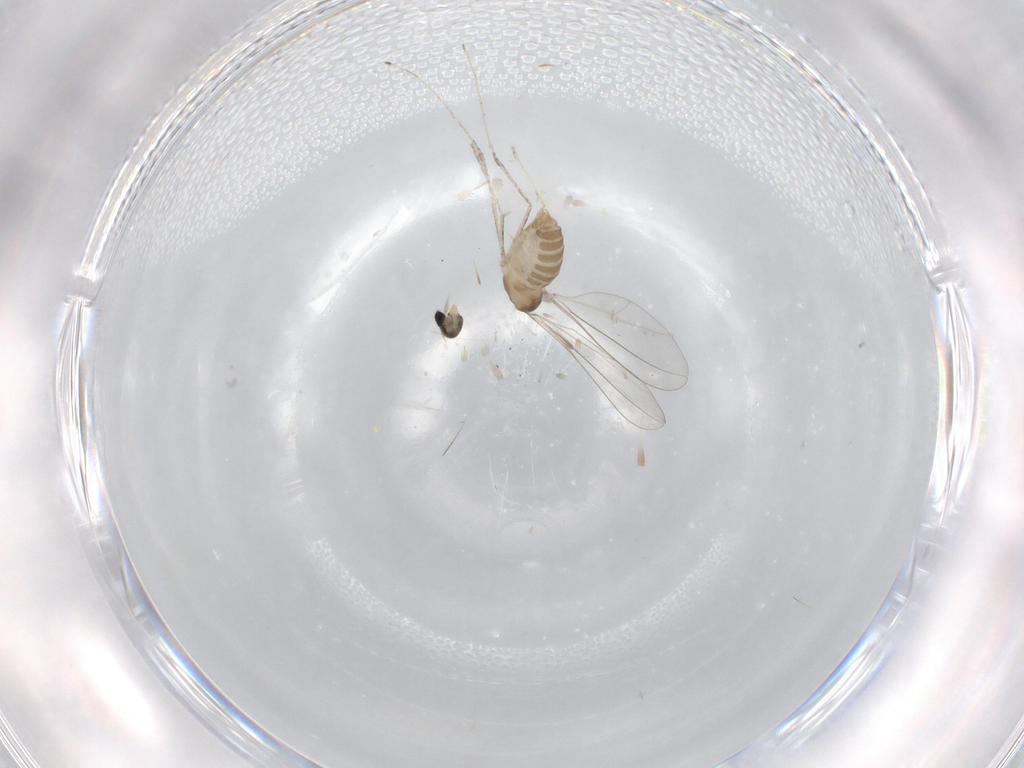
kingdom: Animalia
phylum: Arthropoda
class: Insecta
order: Diptera
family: Cecidomyiidae
